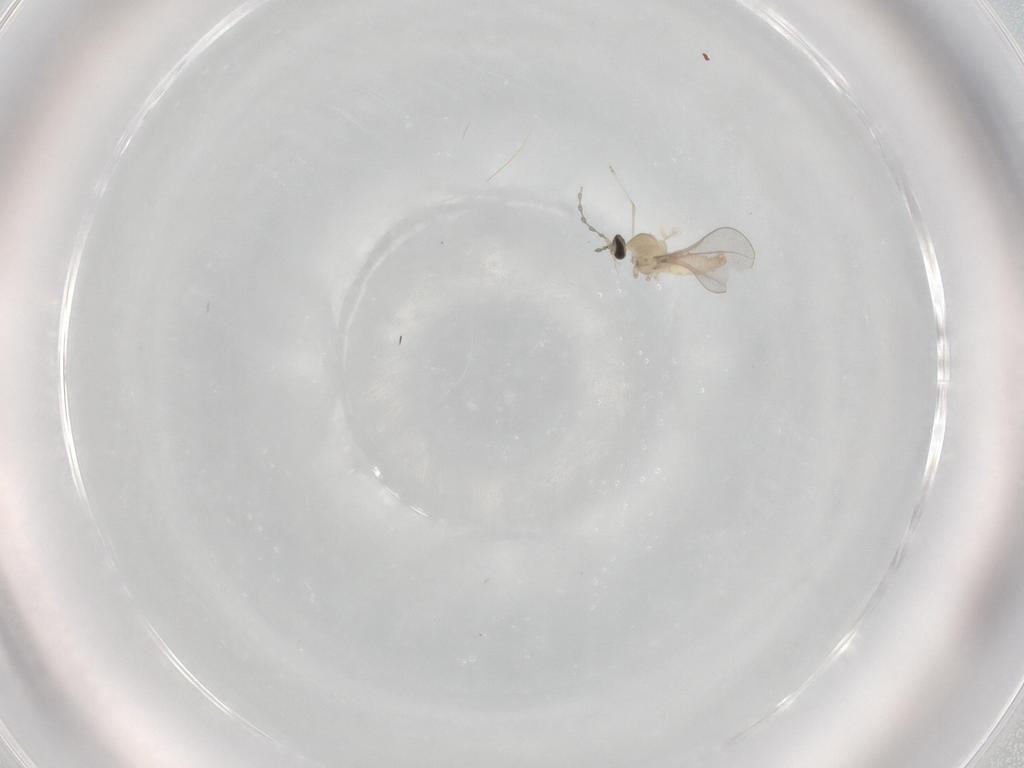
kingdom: Animalia
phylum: Arthropoda
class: Insecta
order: Diptera
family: Cecidomyiidae
